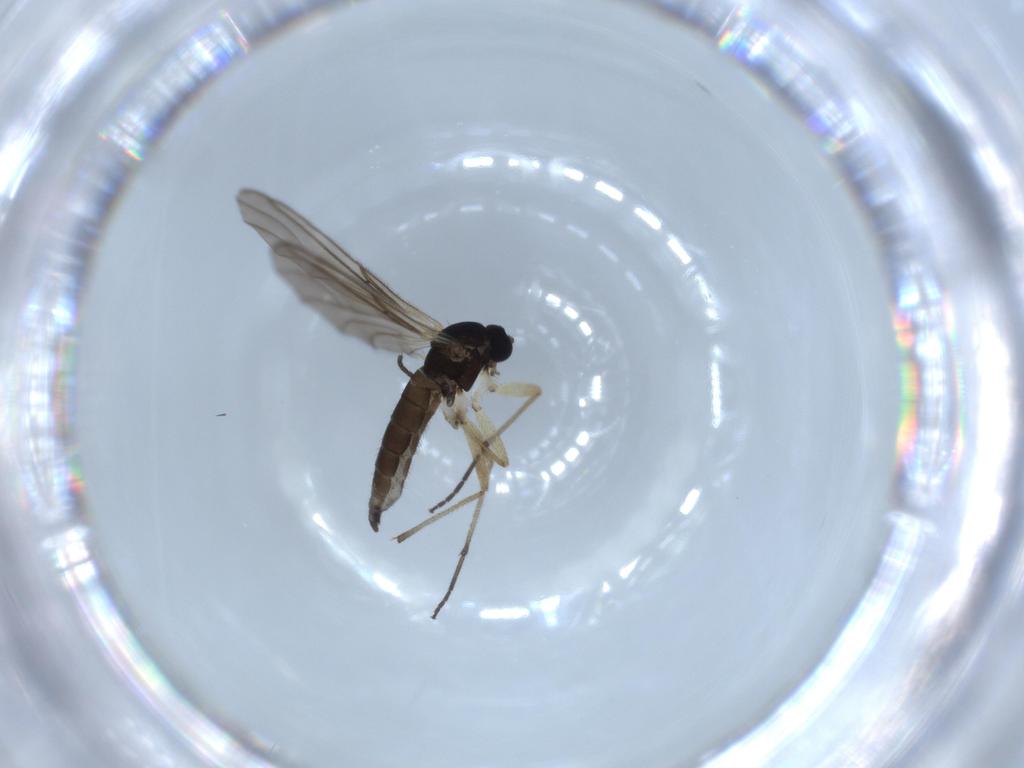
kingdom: Animalia
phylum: Arthropoda
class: Insecta
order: Diptera
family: Sciaridae
